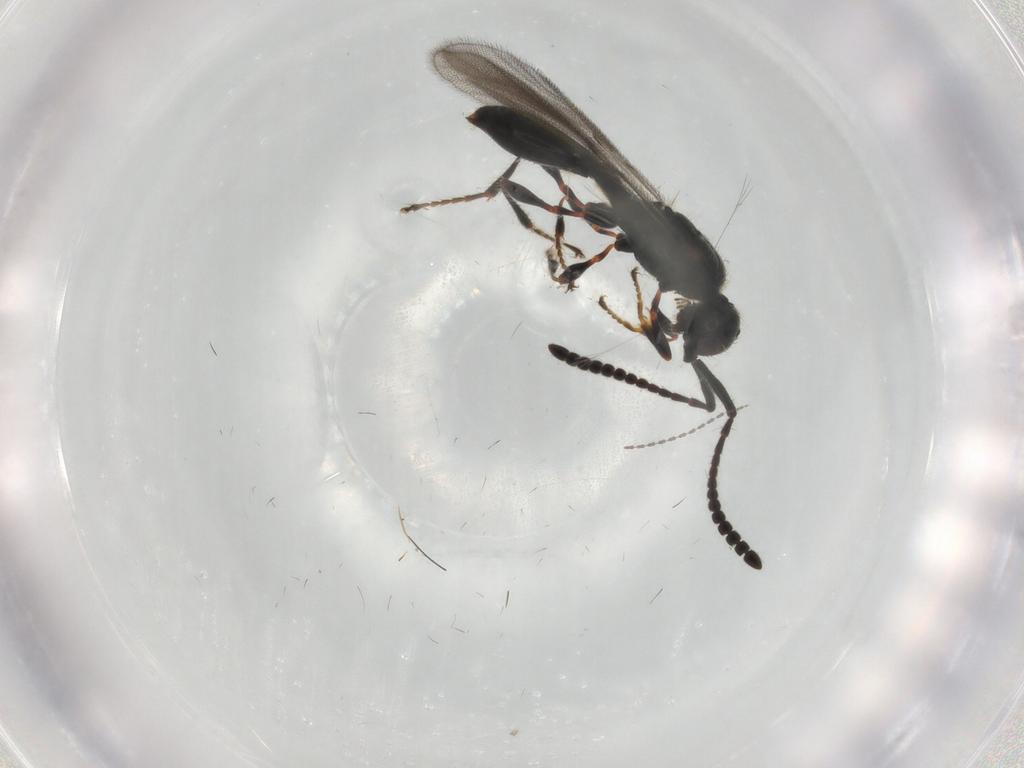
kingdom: Animalia
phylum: Arthropoda
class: Insecta
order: Hymenoptera
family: Diapriidae
